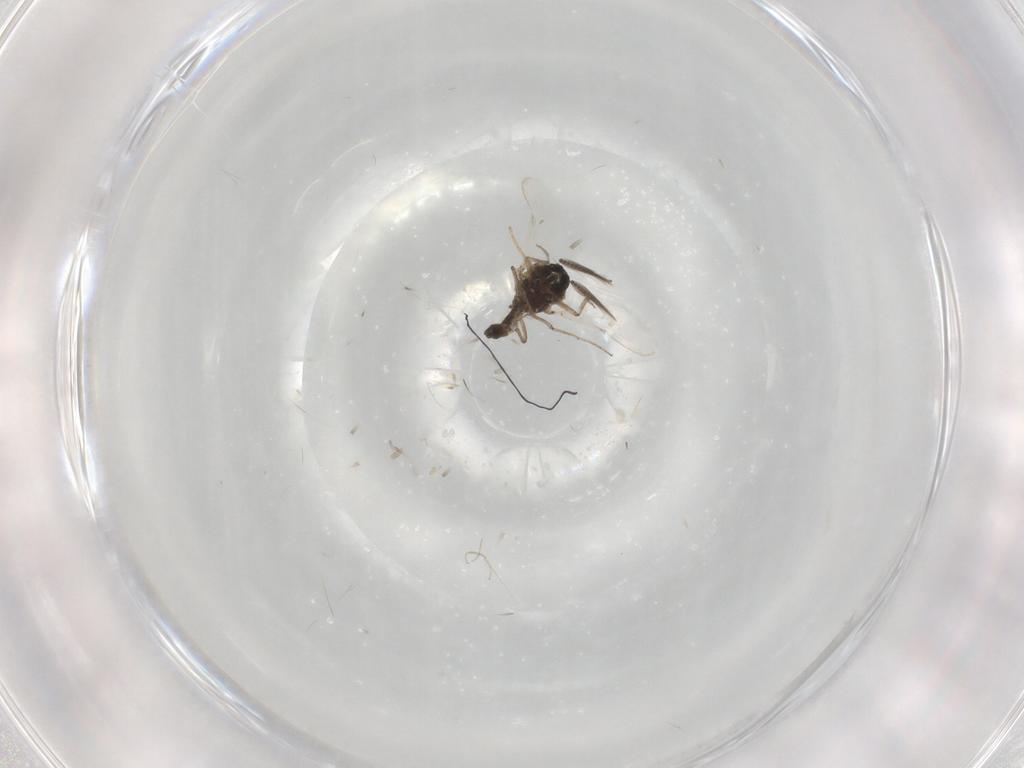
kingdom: Animalia
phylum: Arthropoda
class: Insecta
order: Diptera
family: Ceratopogonidae
